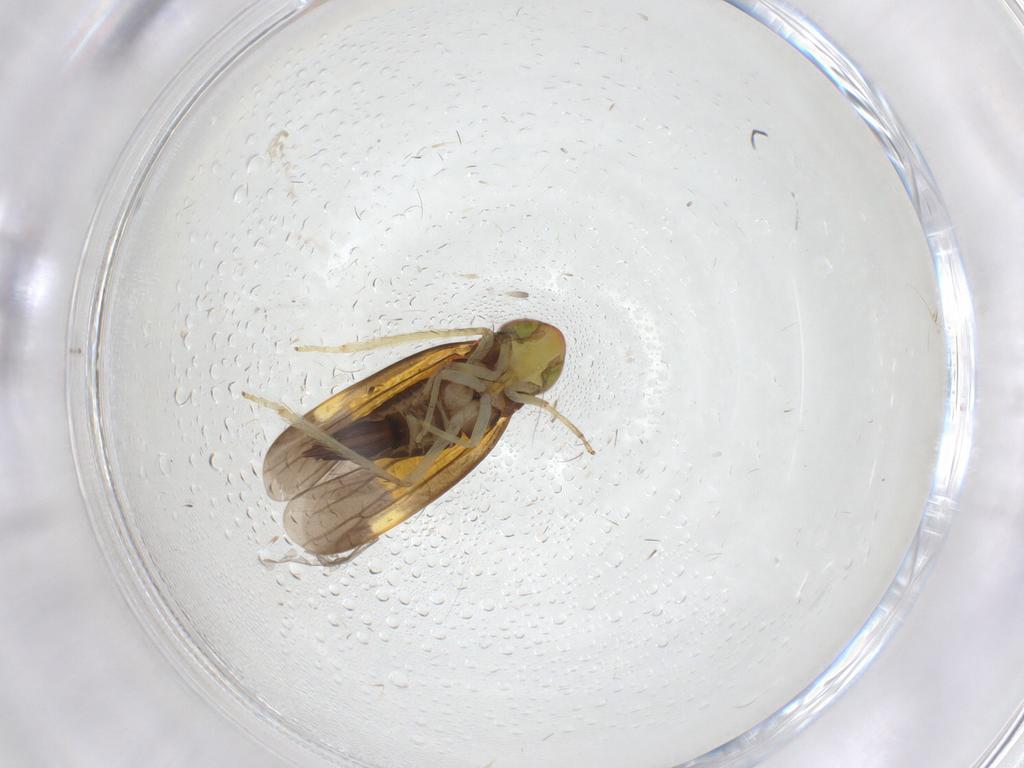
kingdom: Animalia
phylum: Arthropoda
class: Insecta
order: Hemiptera
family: Cicadellidae
